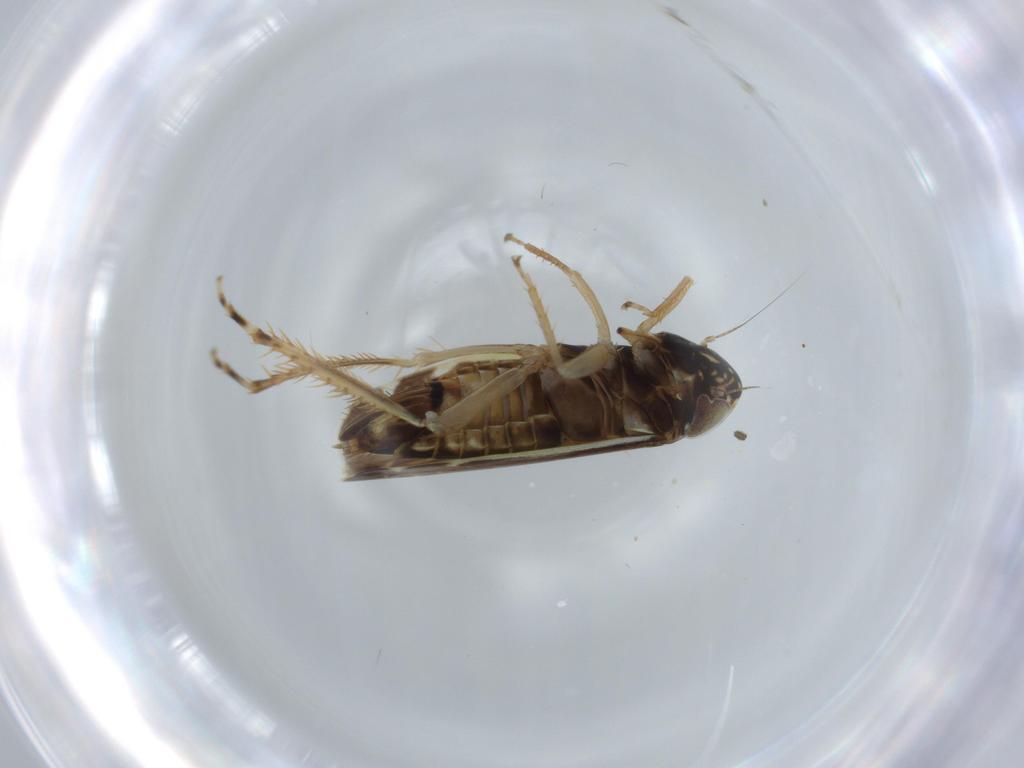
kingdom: Animalia
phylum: Arthropoda
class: Insecta
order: Hemiptera
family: Cicadellidae
